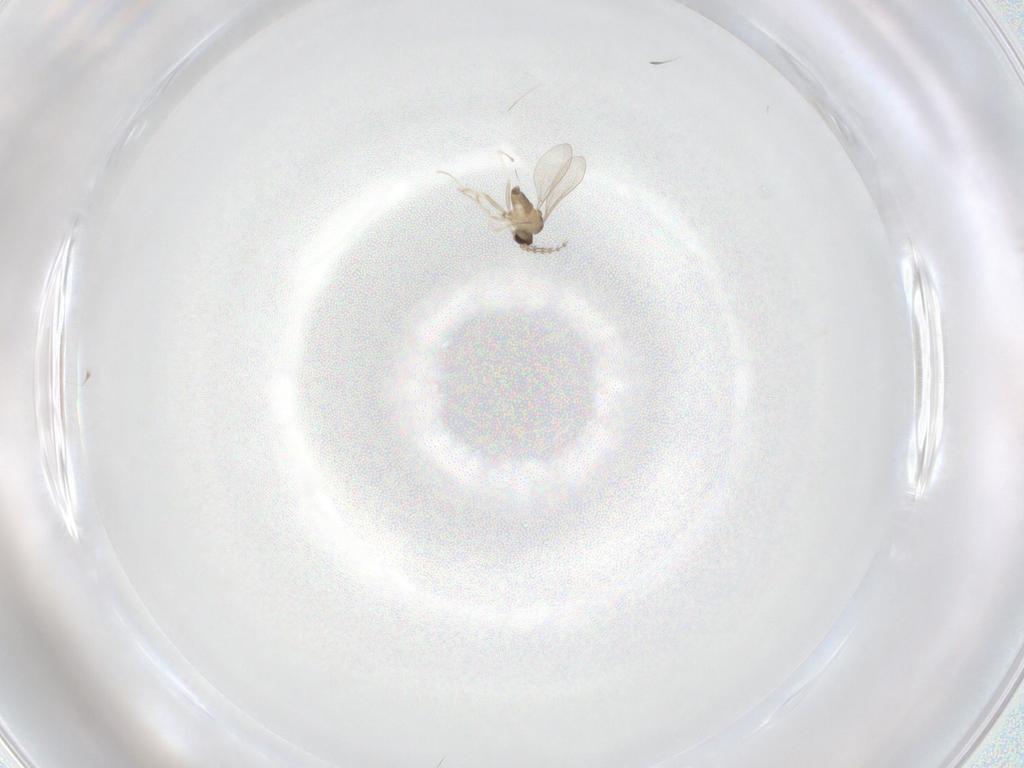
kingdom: Animalia
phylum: Arthropoda
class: Insecta
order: Diptera
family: Cecidomyiidae
